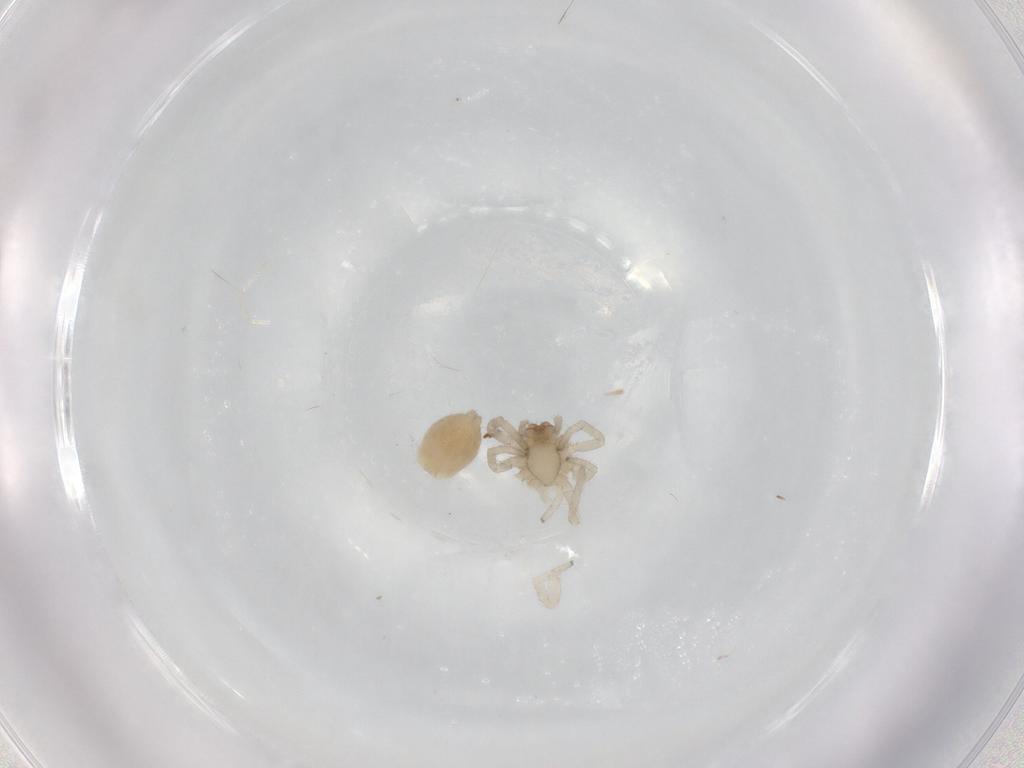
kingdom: Animalia
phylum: Arthropoda
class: Arachnida
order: Araneae
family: Trachelidae
